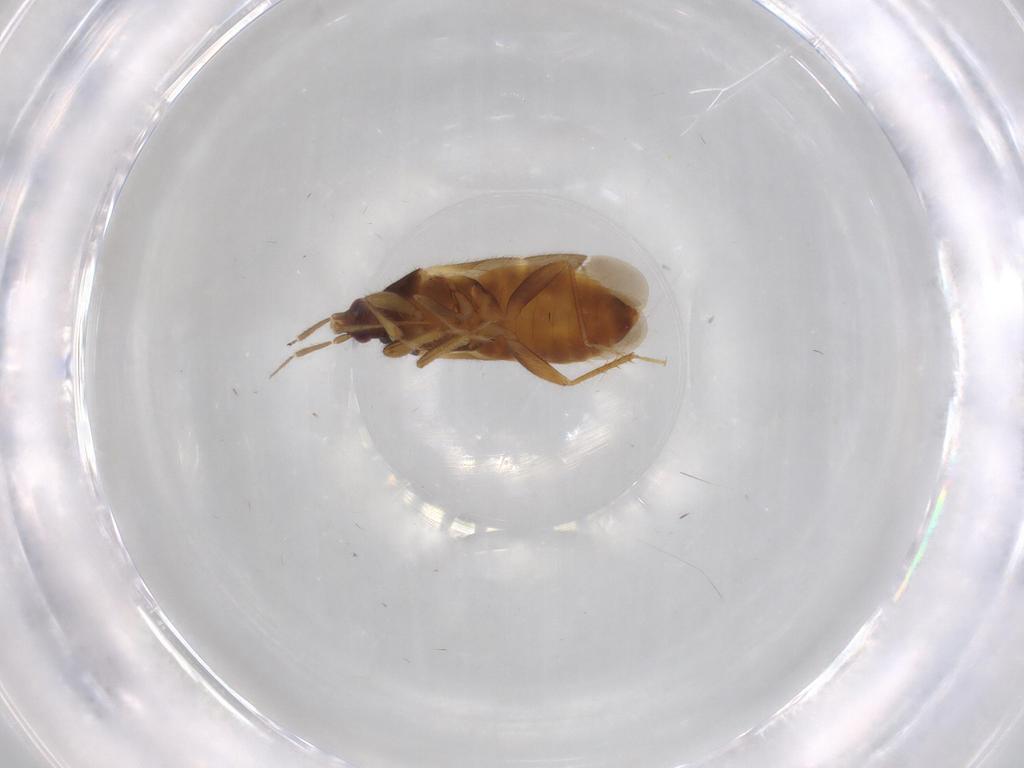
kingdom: Animalia
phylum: Arthropoda
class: Insecta
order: Hemiptera
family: Lasiochilidae
